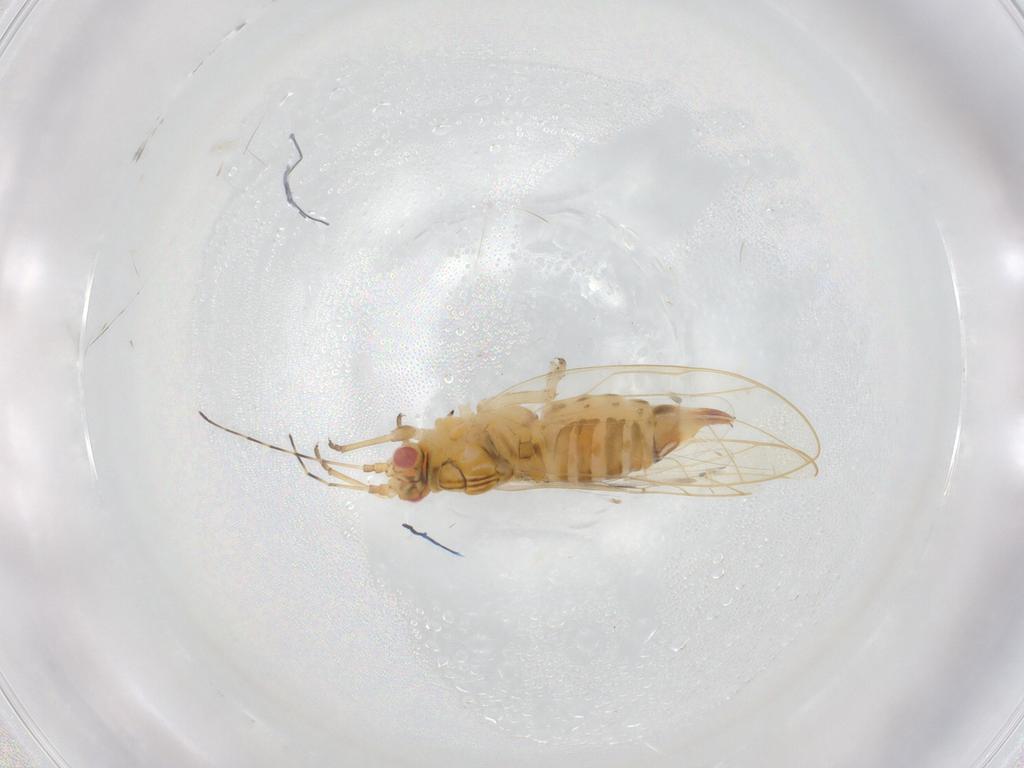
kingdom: Animalia
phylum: Arthropoda
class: Insecta
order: Hemiptera
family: Carsidaridae
